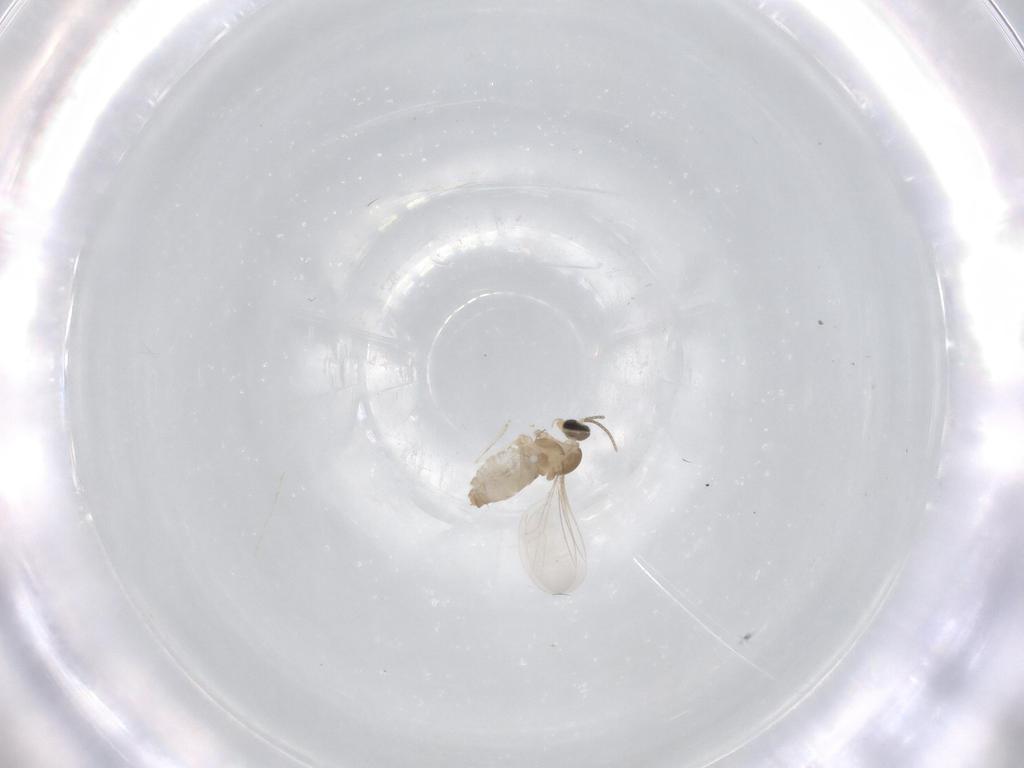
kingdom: Animalia
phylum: Arthropoda
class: Insecta
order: Diptera
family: Cecidomyiidae
